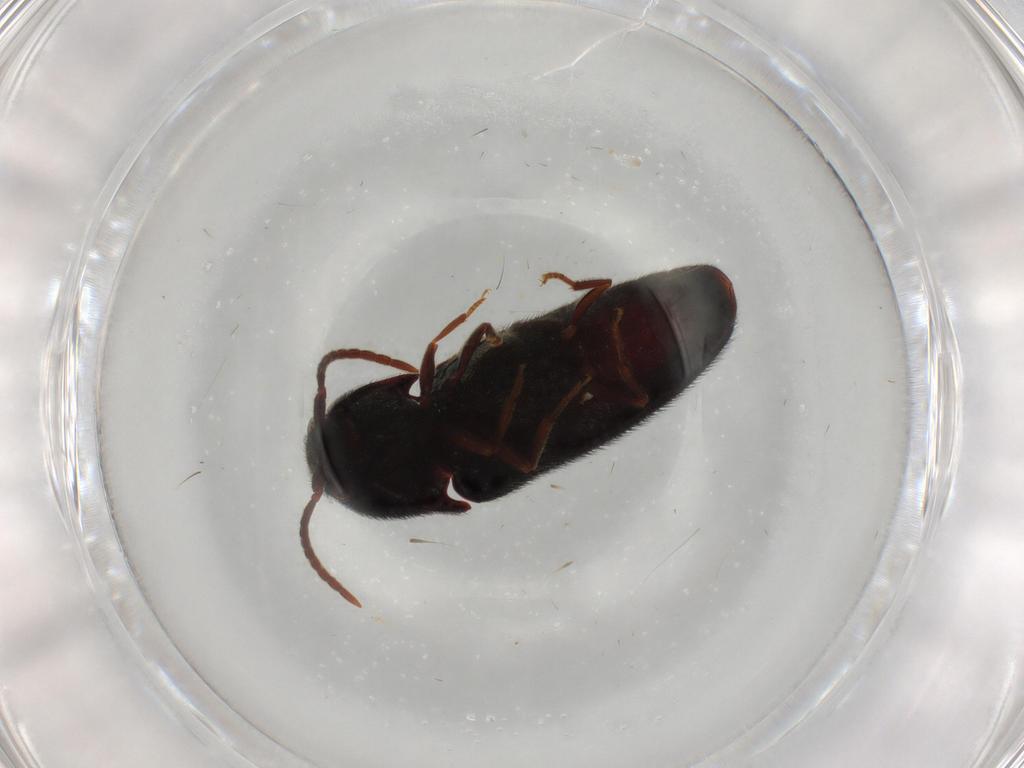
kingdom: Animalia
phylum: Arthropoda
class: Insecta
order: Coleoptera
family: Eucnemidae
